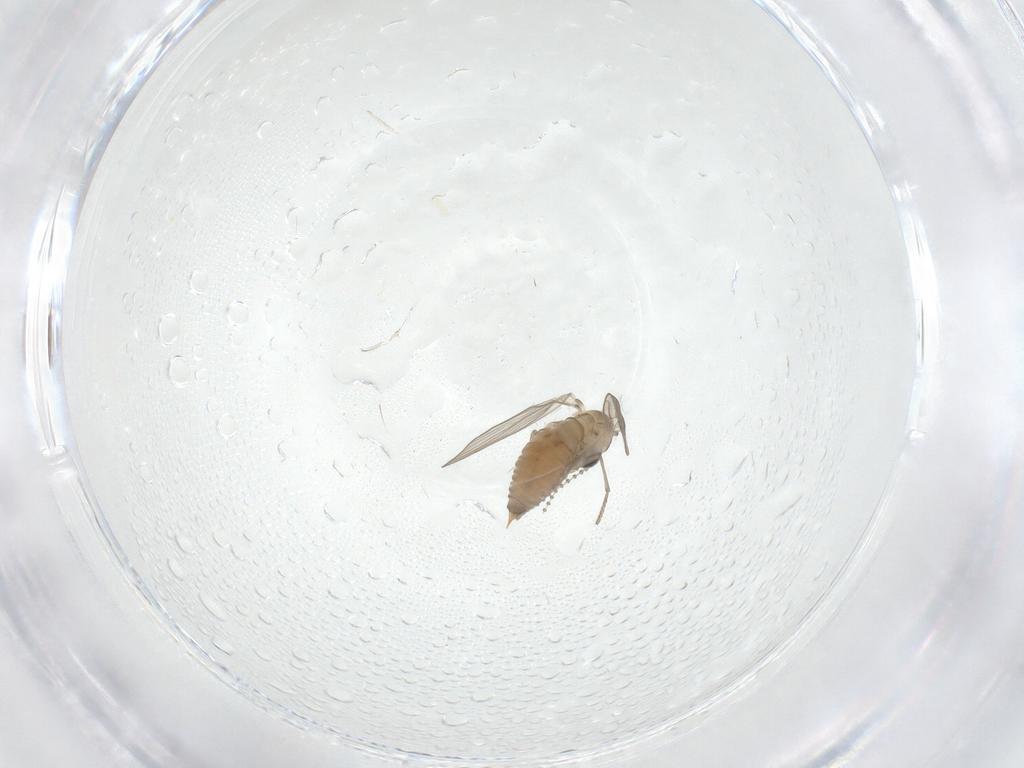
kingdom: Animalia
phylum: Arthropoda
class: Insecta
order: Diptera
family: Psychodidae
